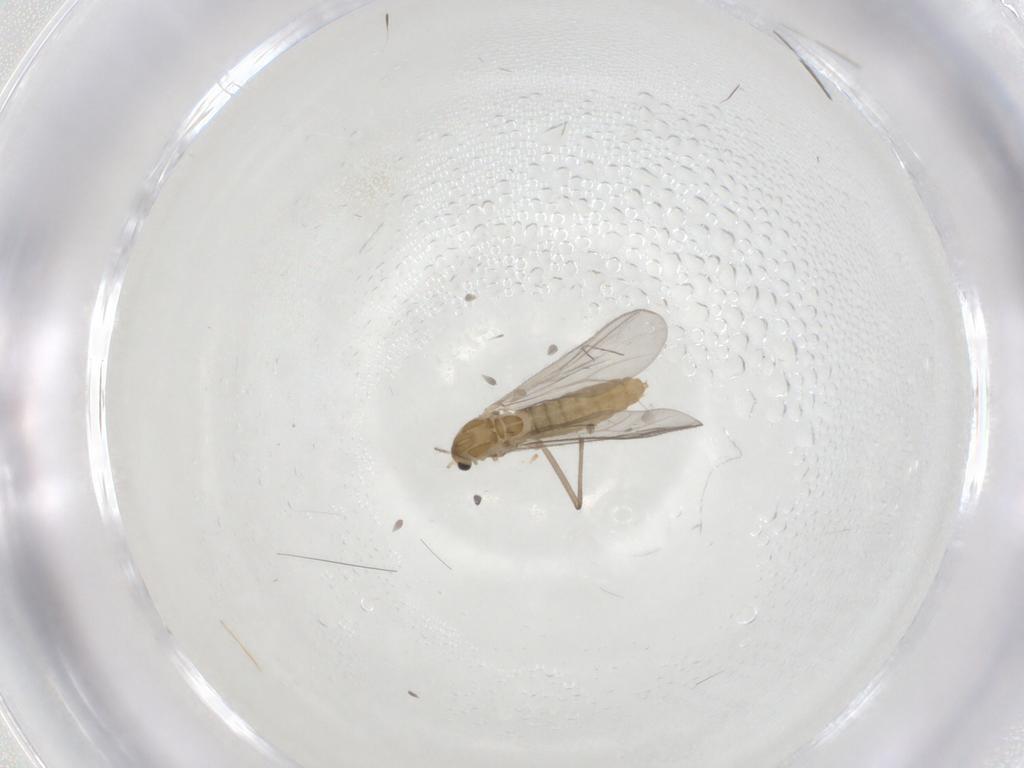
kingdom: Animalia
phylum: Arthropoda
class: Insecta
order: Diptera
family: Chironomidae
